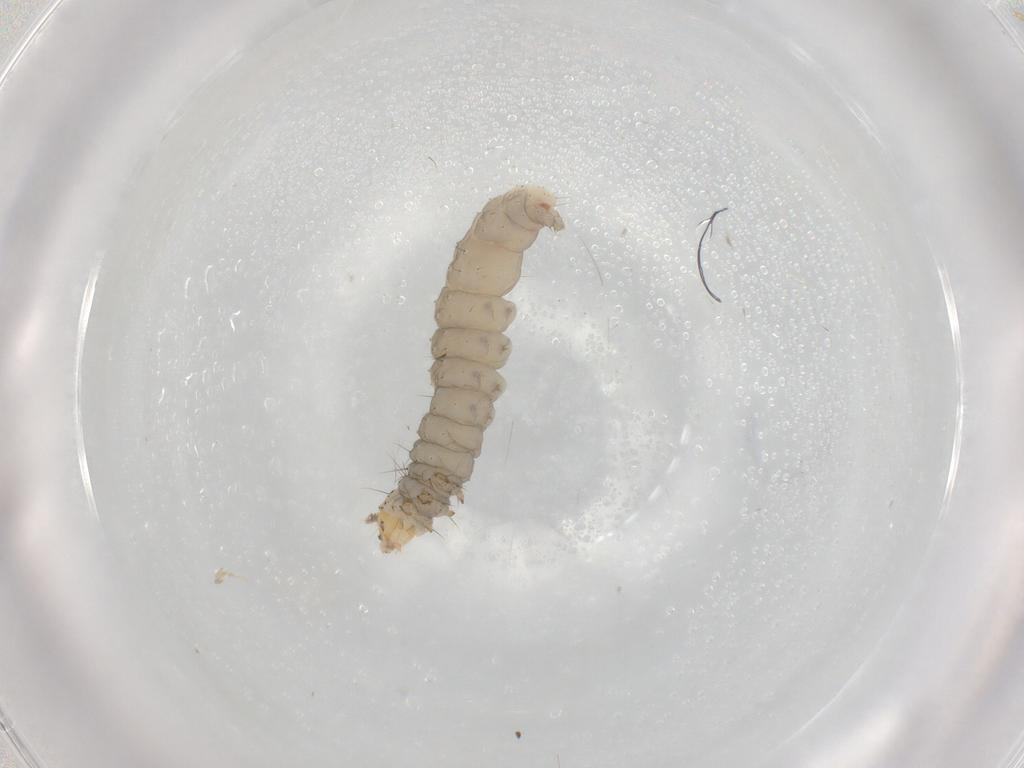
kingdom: Animalia
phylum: Arthropoda
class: Insecta
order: Lepidoptera
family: Bucculatricidae
